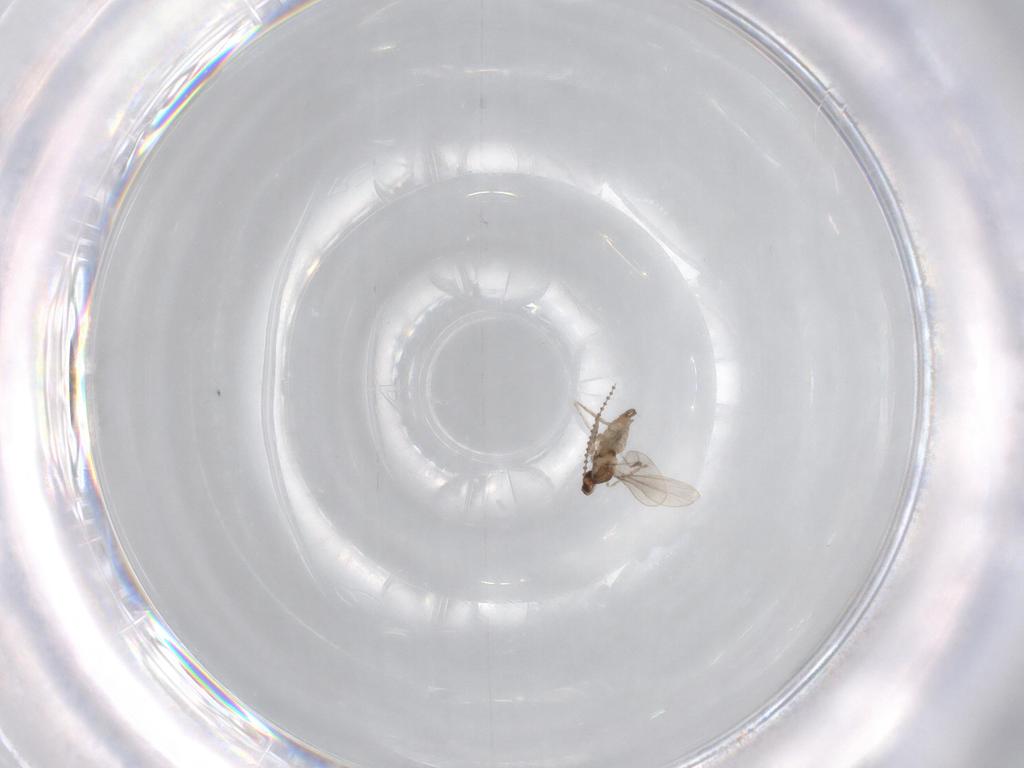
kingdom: Animalia
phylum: Arthropoda
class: Insecta
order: Diptera
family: Cecidomyiidae
